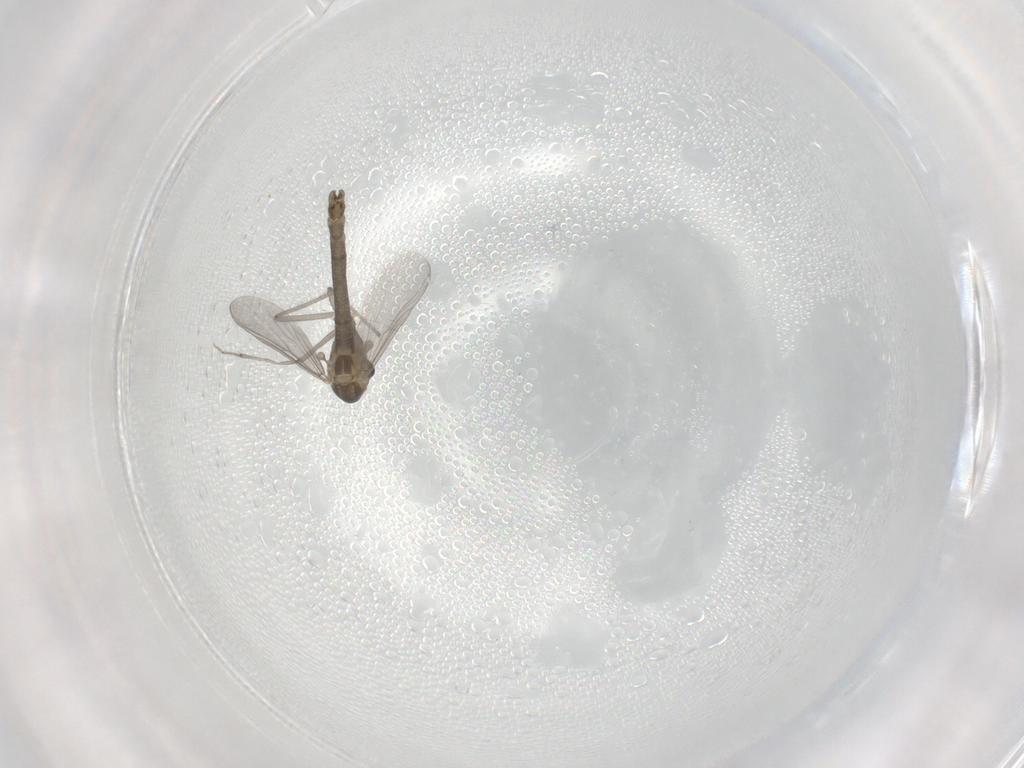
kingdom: Animalia
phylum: Arthropoda
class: Insecta
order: Diptera
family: Chironomidae
